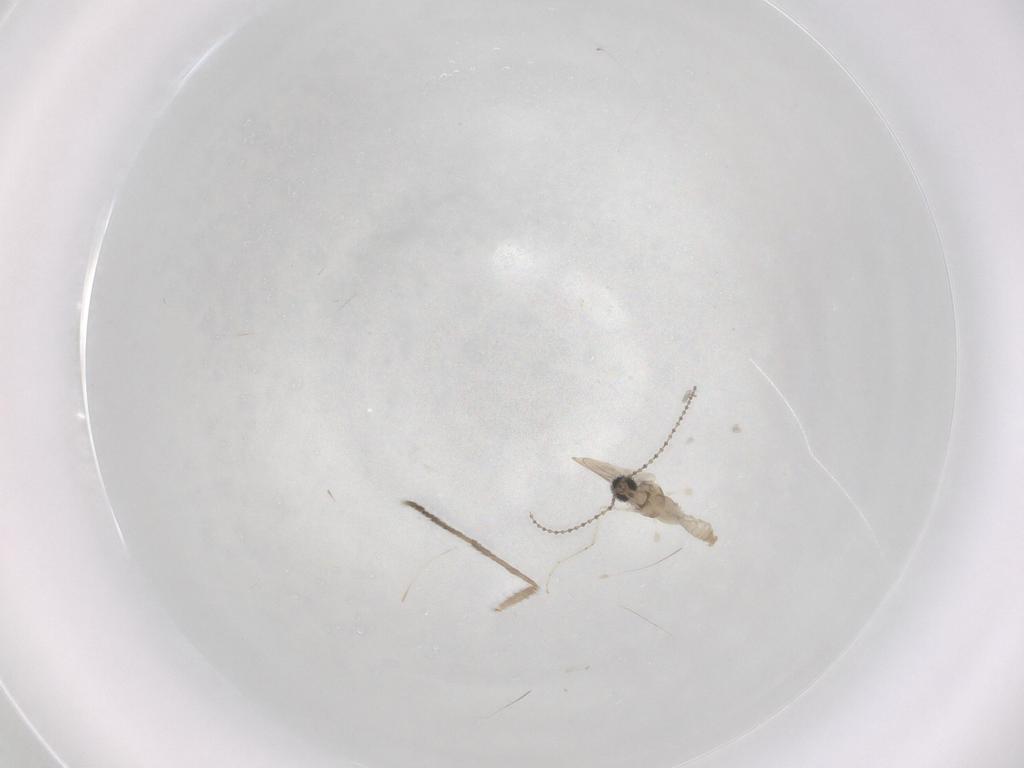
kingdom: Animalia
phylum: Arthropoda
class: Insecta
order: Diptera
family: Cecidomyiidae
